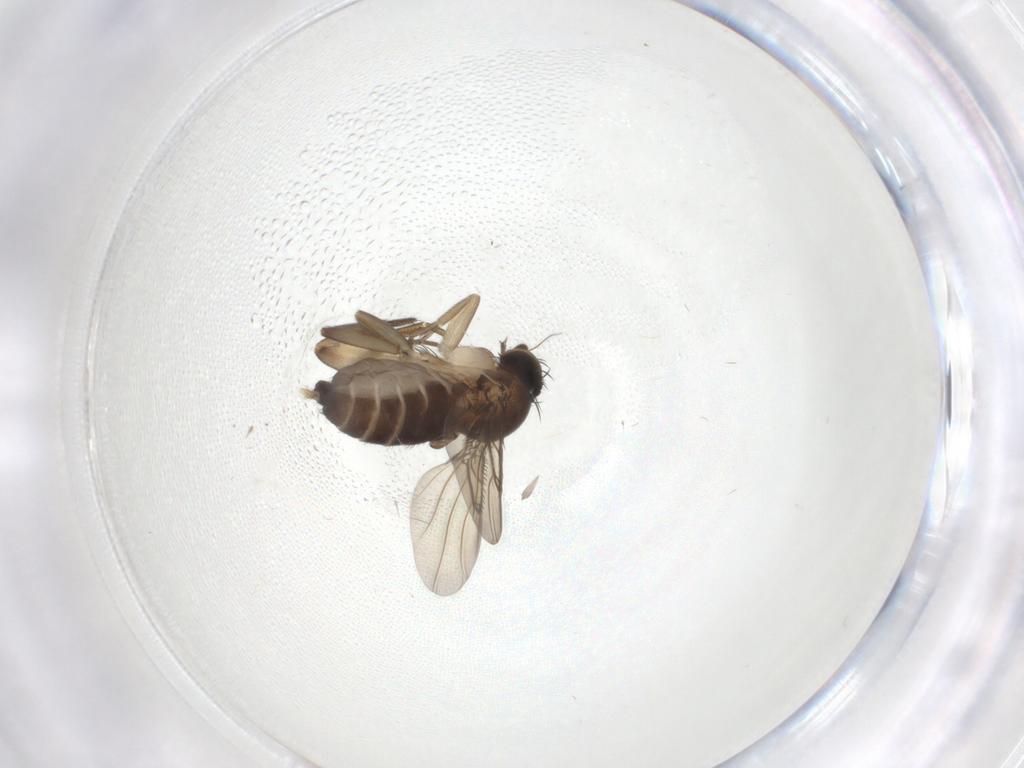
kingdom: Animalia
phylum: Arthropoda
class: Insecta
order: Diptera
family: Phoridae
